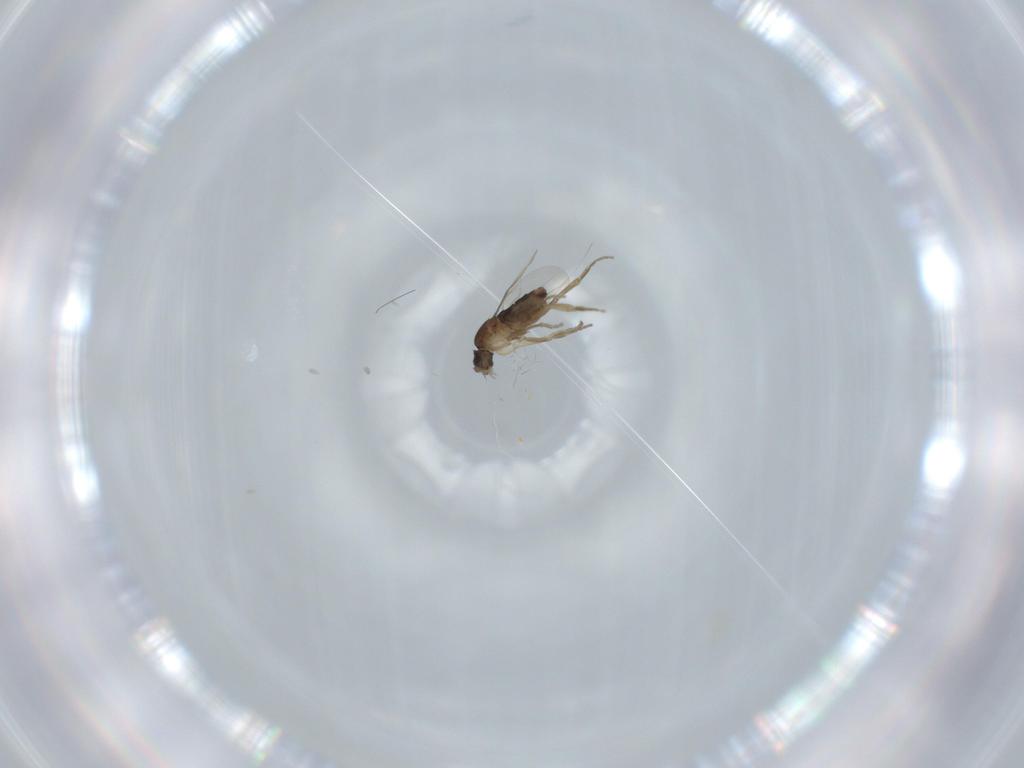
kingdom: Animalia
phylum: Arthropoda
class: Insecta
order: Diptera
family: Phoridae
